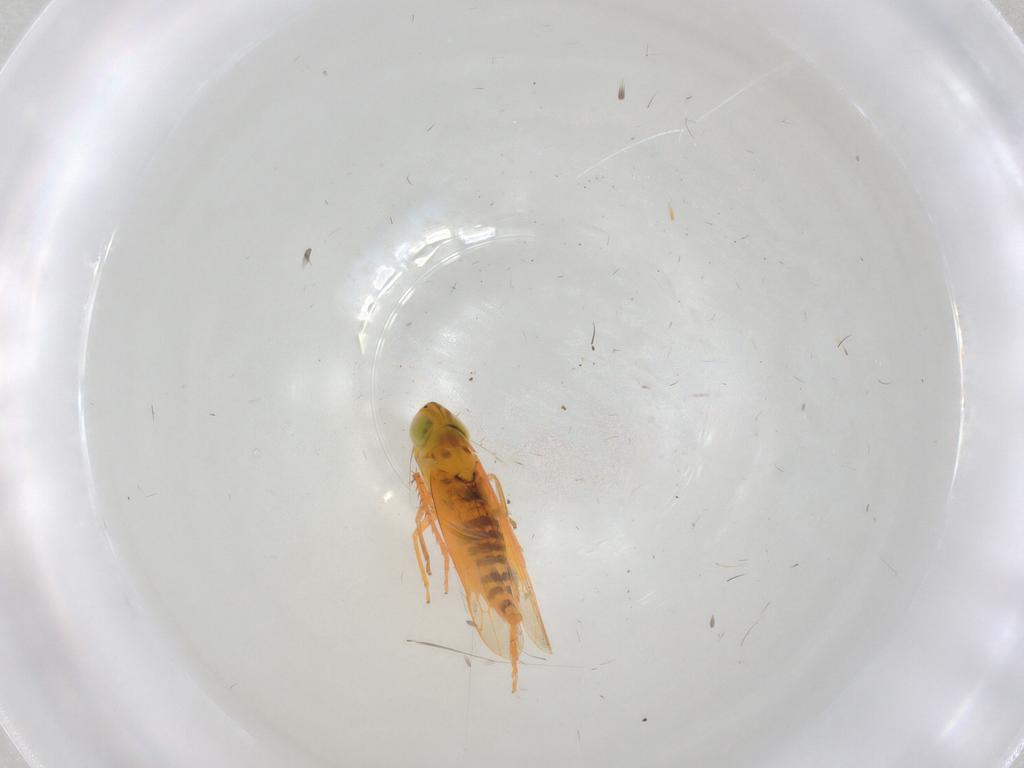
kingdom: Animalia
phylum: Arthropoda
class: Insecta
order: Hemiptera
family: Cicadellidae
